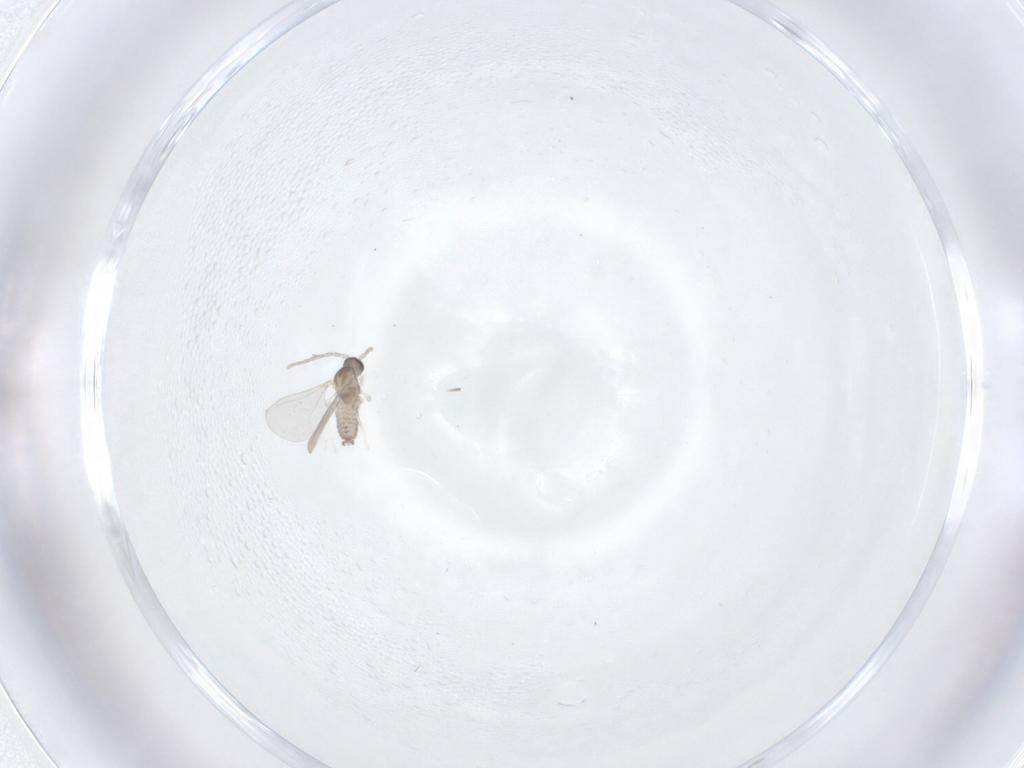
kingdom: Animalia
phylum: Arthropoda
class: Insecta
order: Diptera
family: Cecidomyiidae
